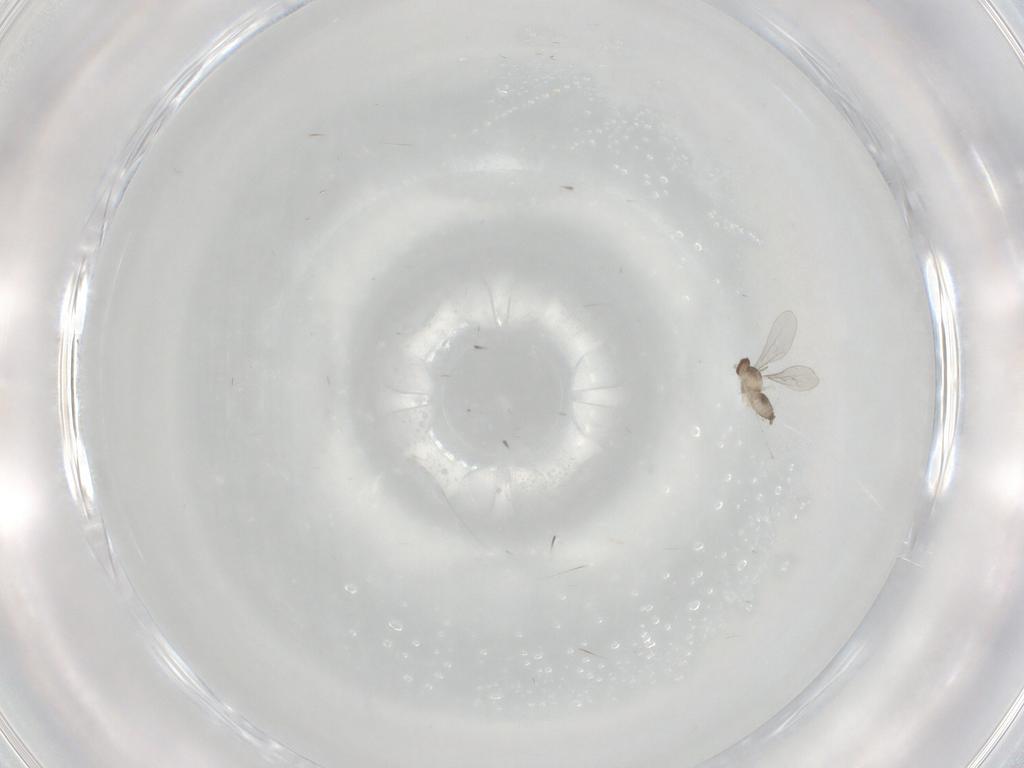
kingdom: Animalia
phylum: Arthropoda
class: Insecta
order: Diptera
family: Cecidomyiidae
